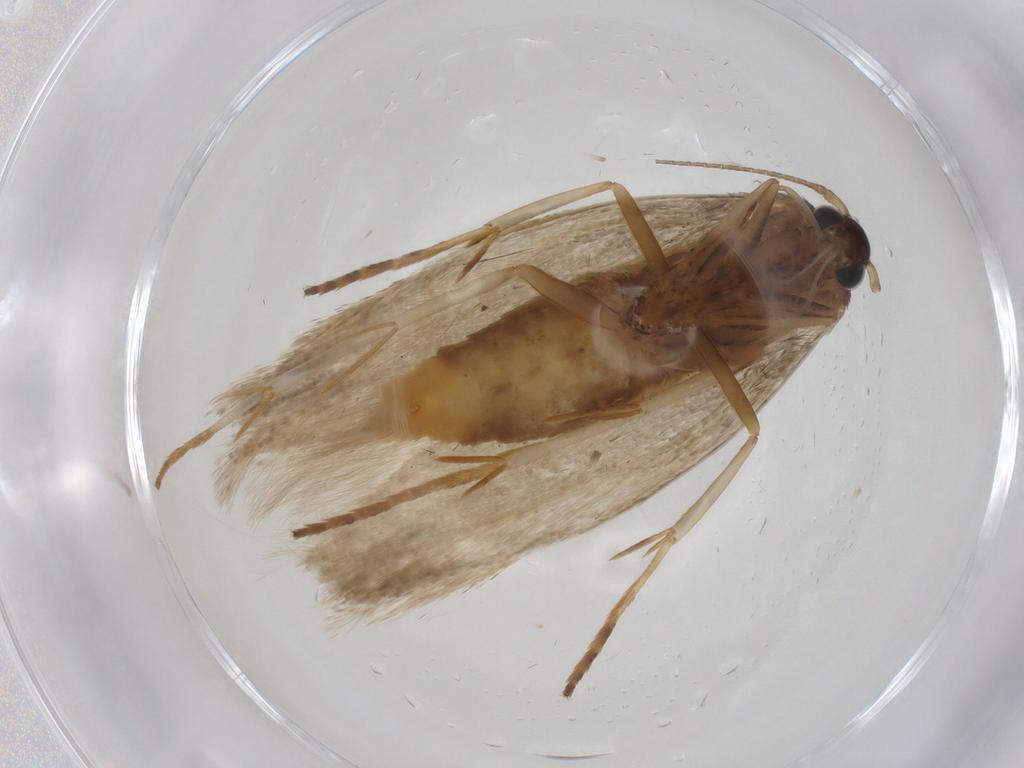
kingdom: Animalia
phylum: Arthropoda
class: Insecta
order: Lepidoptera
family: Erebidae
